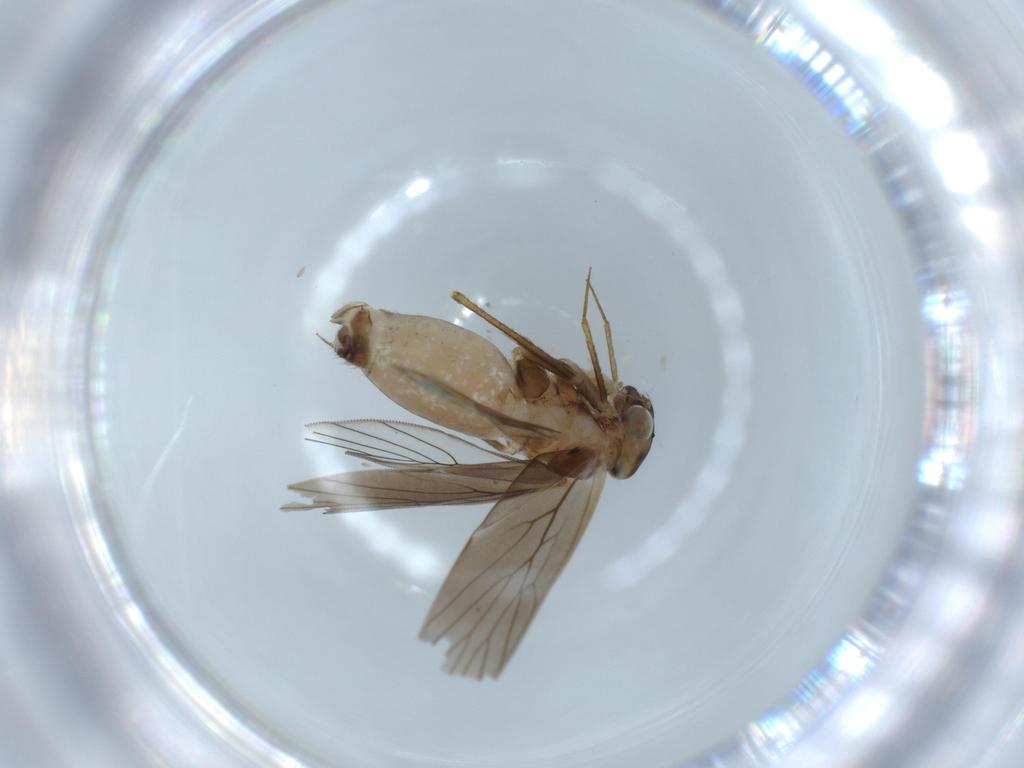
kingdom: Animalia
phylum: Arthropoda
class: Insecta
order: Psocodea
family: Lepidopsocidae
